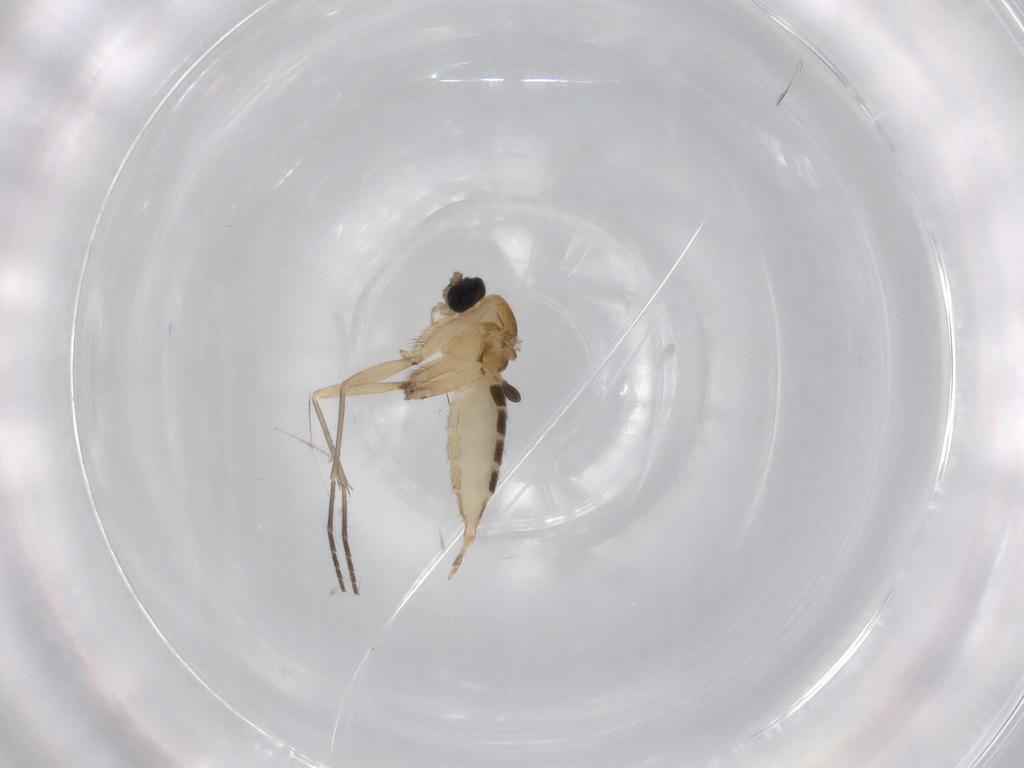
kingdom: Animalia
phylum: Arthropoda
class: Insecta
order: Diptera
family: Sciaridae
